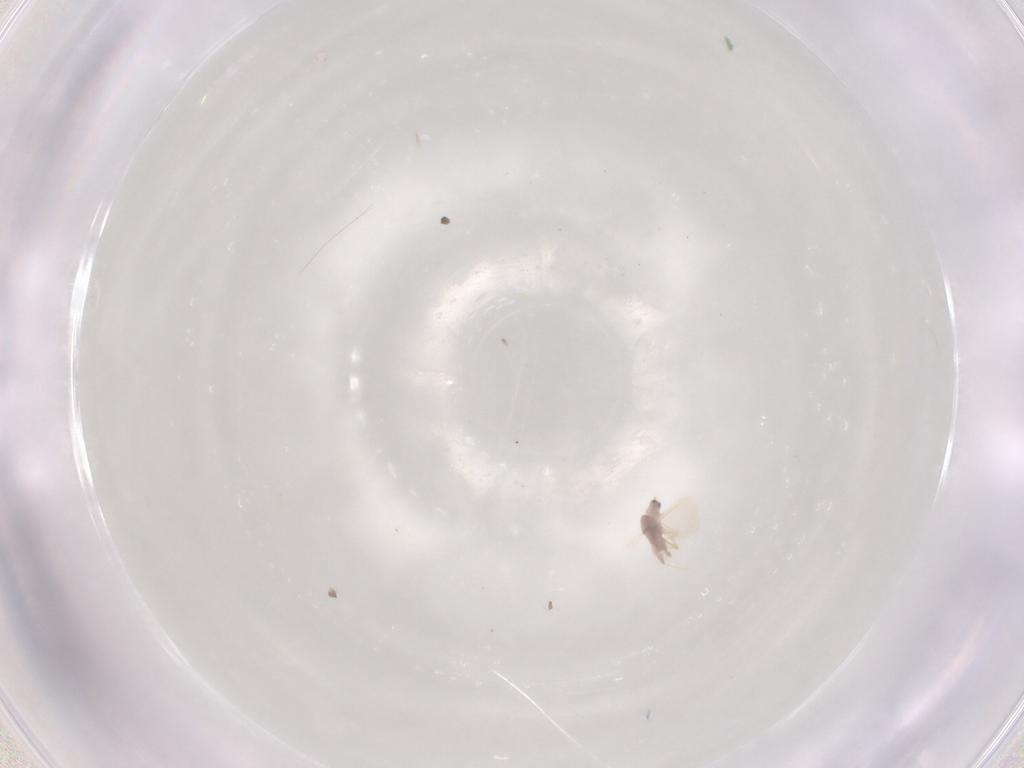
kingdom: Animalia
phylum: Arthropoda
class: Insecta
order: Hemiptera
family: Diaspididae
